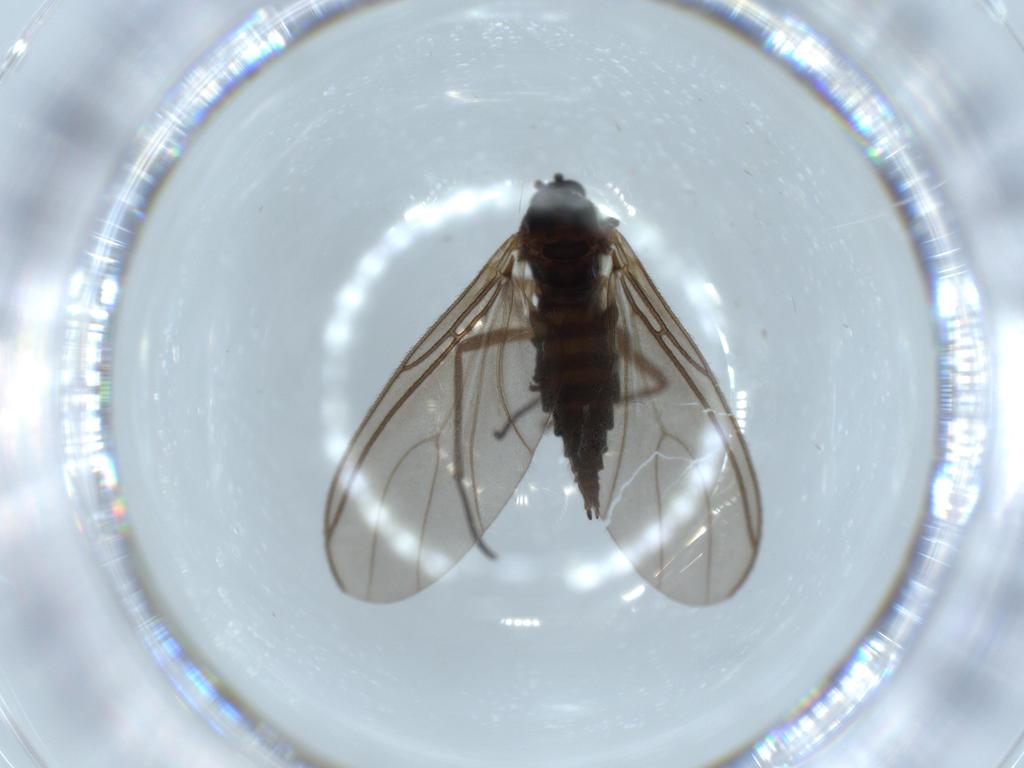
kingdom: Animalia
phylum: Arthropoda
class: Insecta
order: Diptera
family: Sciaridae
